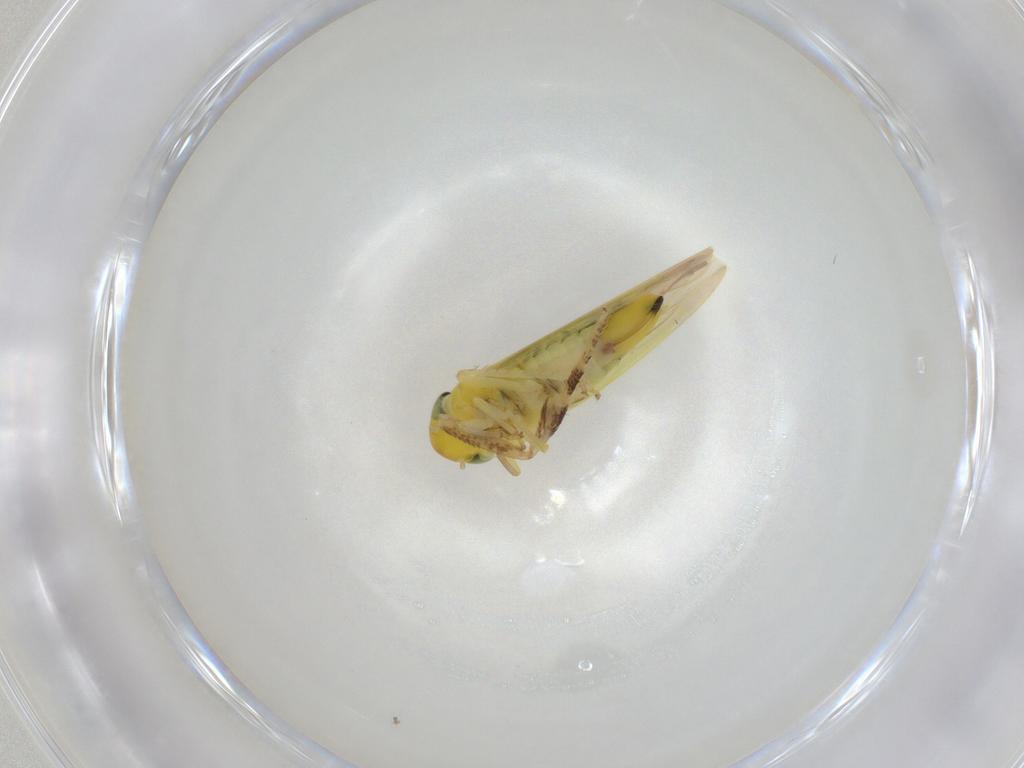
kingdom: Animalia
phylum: Arthropoda
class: Insecta
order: Hemiptera
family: Cicadellidae
